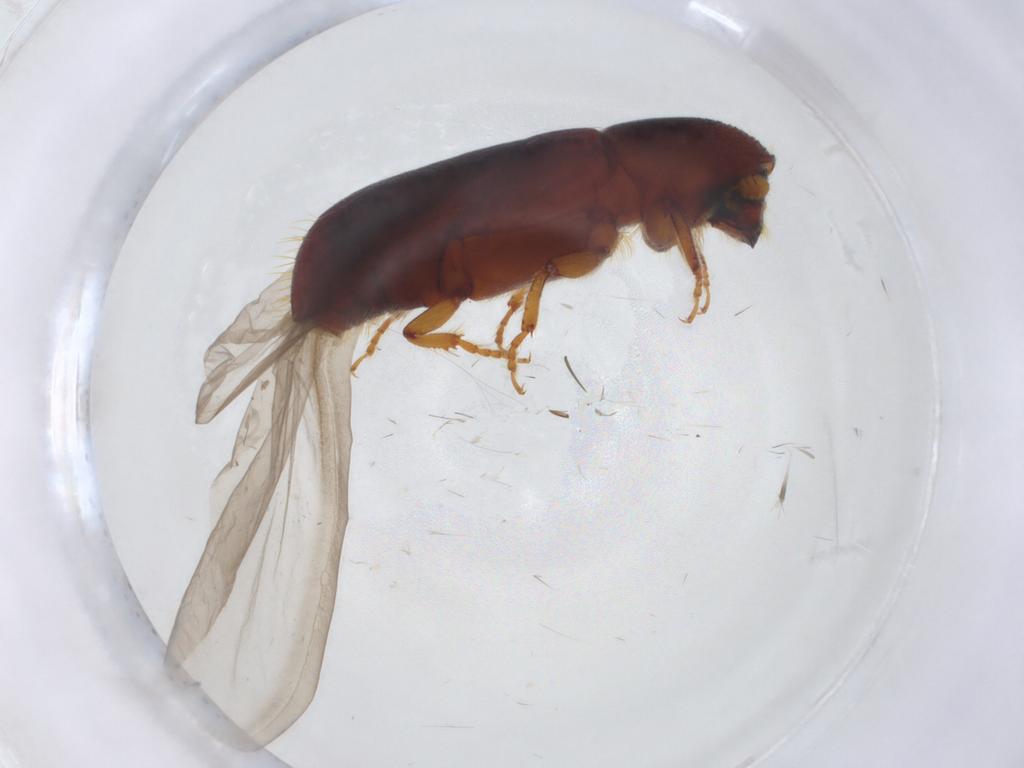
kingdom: Animalia
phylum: Arthropoda
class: Insecta
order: Coleoptera
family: Curculionidae
